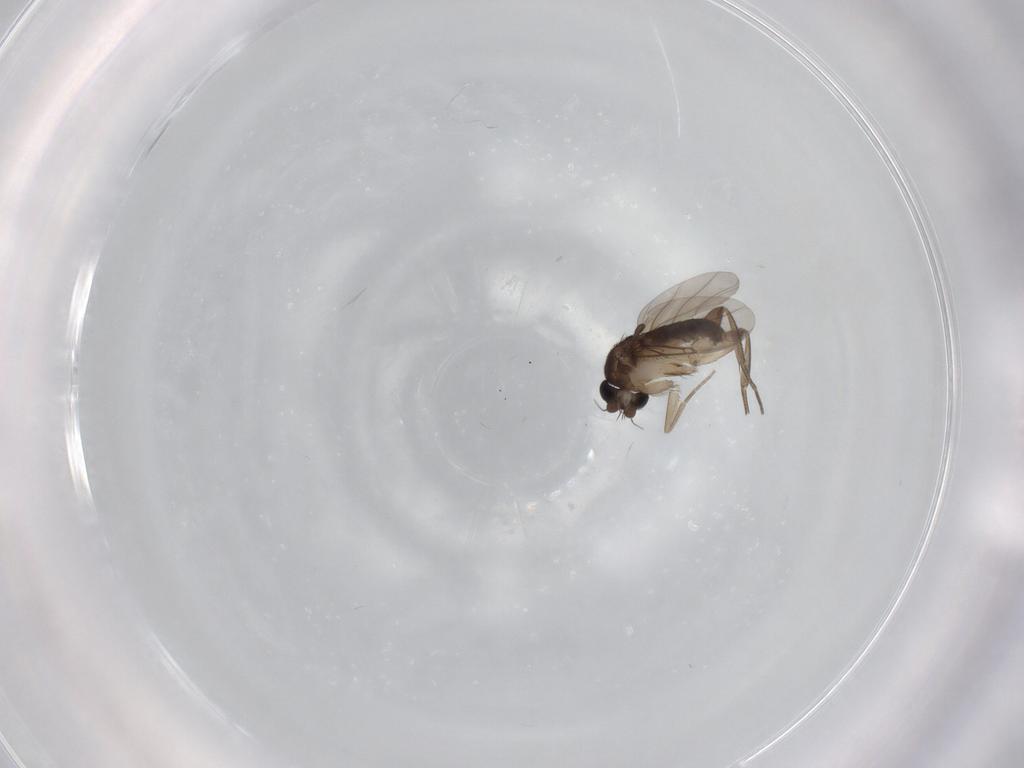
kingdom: Animalia
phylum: Arthropoda
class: Insecta
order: Diptera
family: Phoridae
